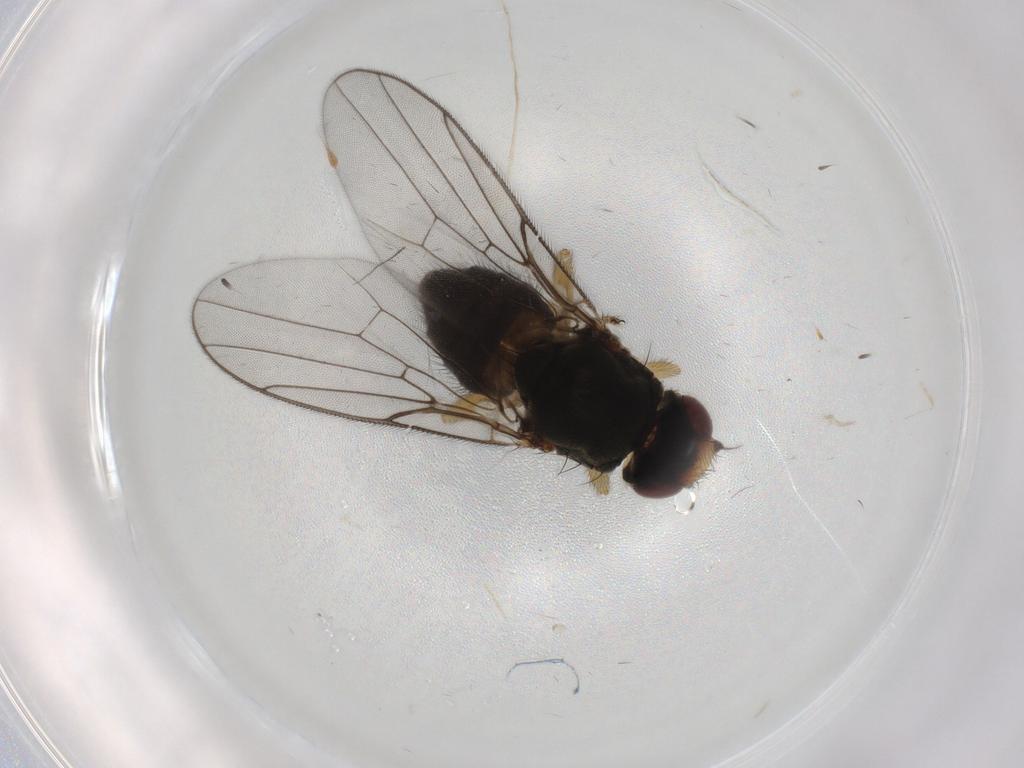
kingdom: Animalia
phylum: Arthropoda
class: Insecta
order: Diptera
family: Chloropidae
